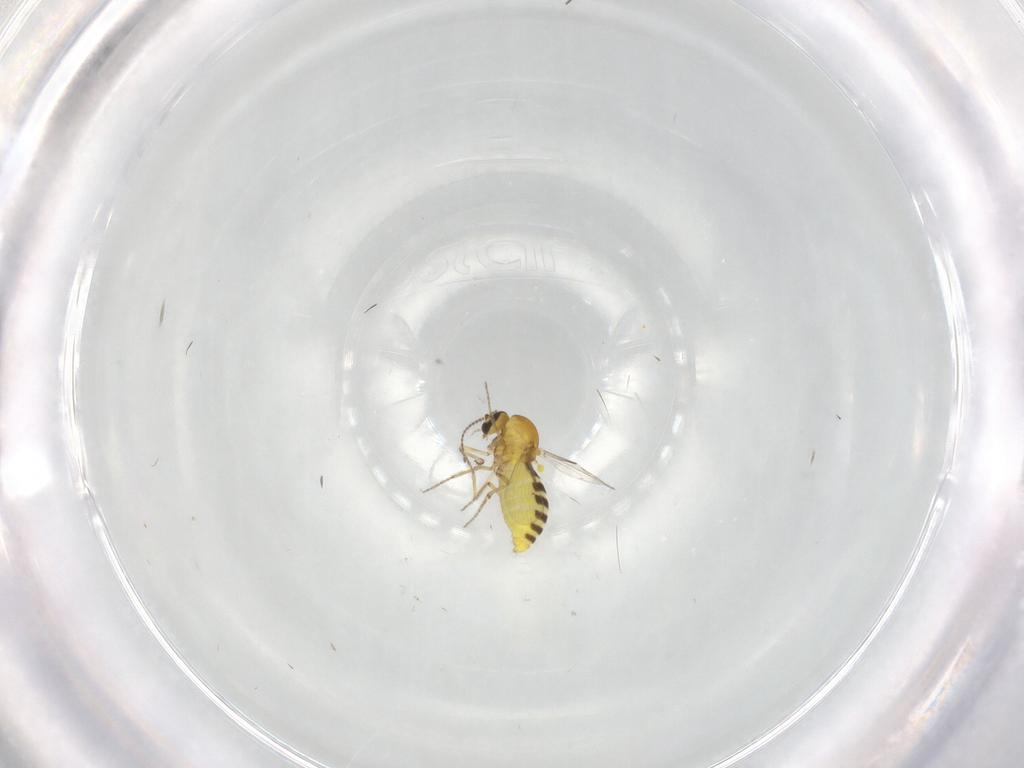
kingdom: Animalia
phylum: Arthropoda
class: Insecta
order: Diptera
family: Ceratopogonidae
